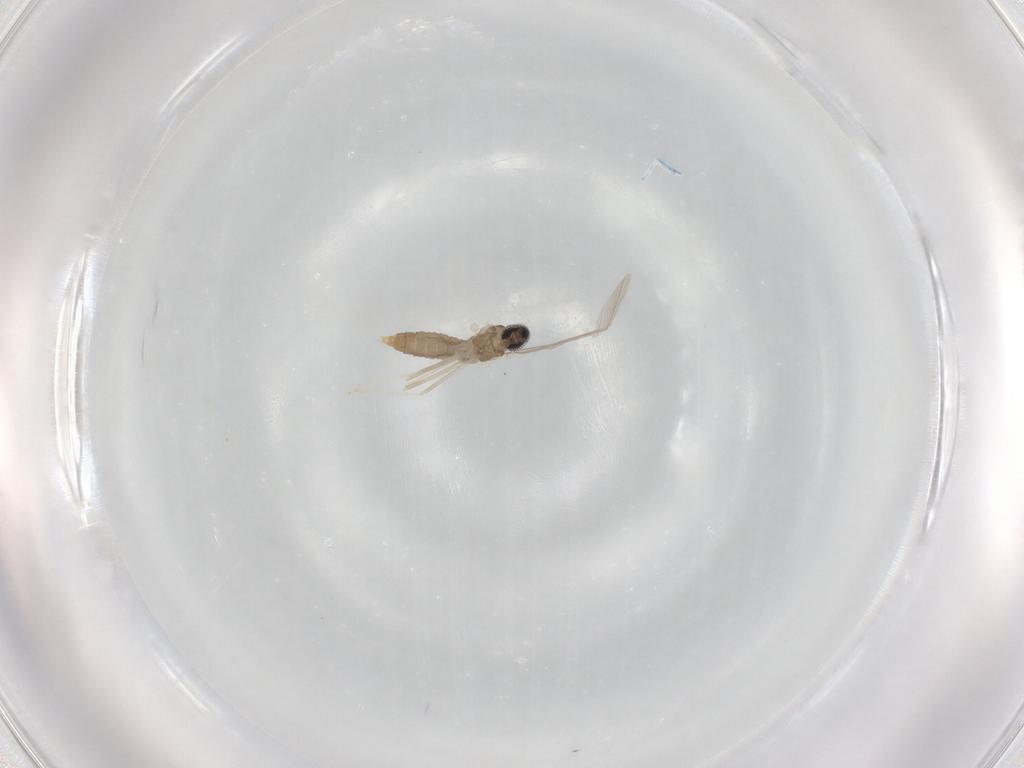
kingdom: Animalia
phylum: Arthropoda
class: Insecta
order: Diptera
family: Cecidomyiidae
